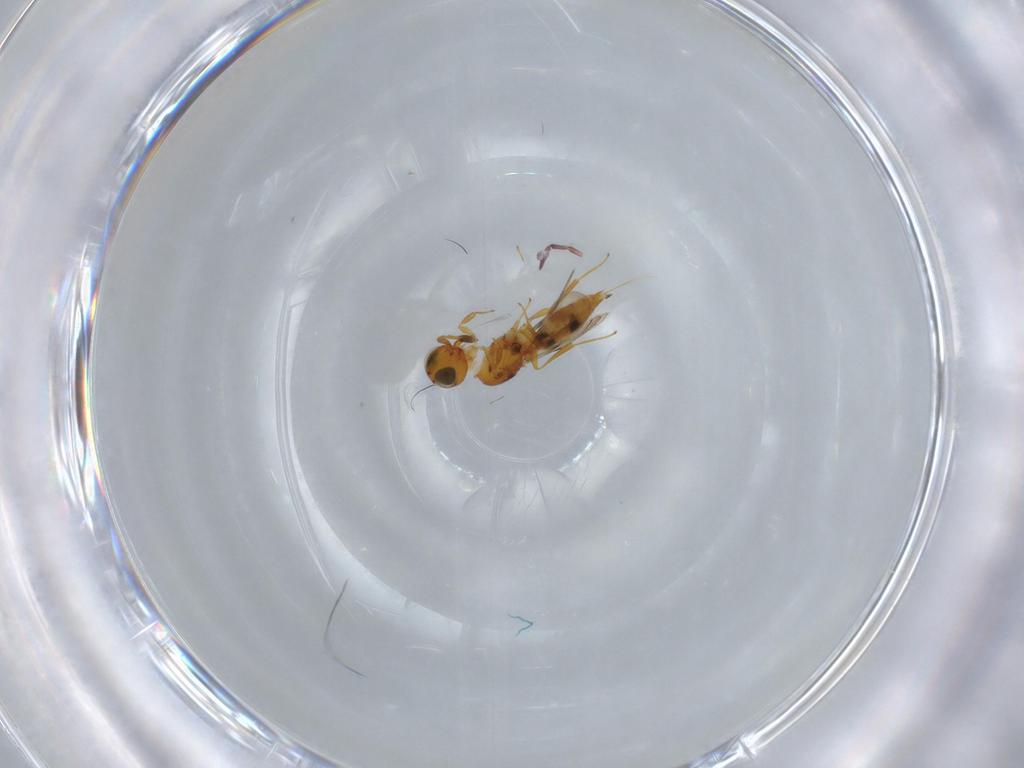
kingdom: Animalia
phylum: Arthropoda
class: Insecta
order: Hymenoptera
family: Scelionidae
